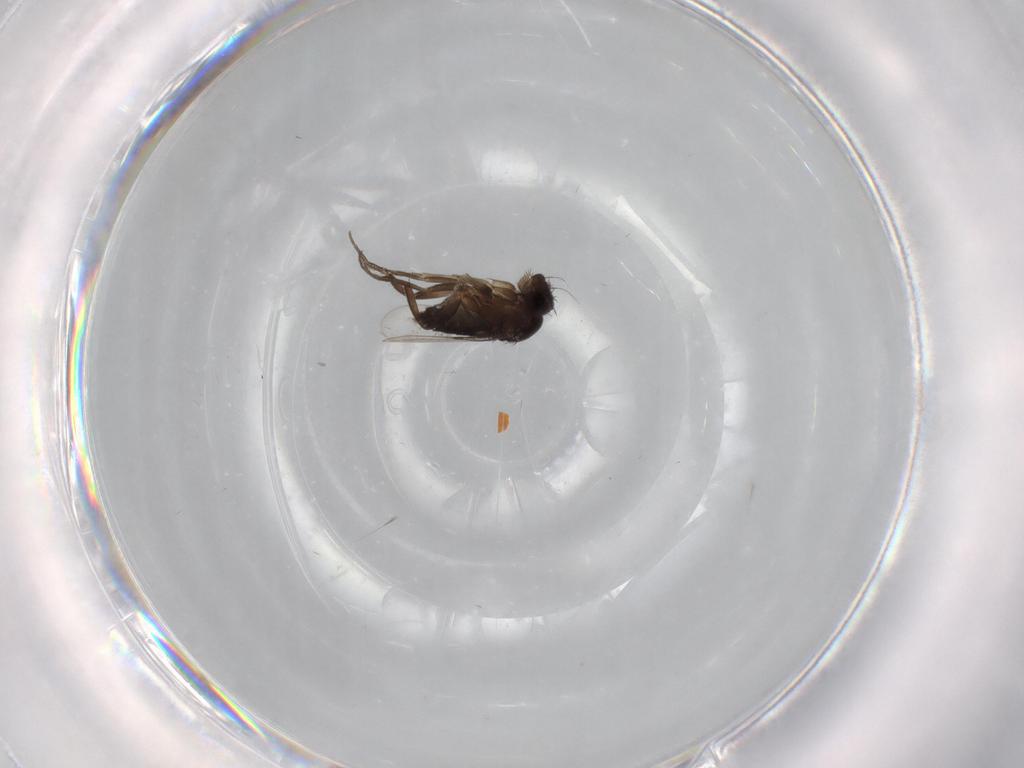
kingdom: Animalia
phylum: Arthropoda
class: Insecta
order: Diptera
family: Phoridae
